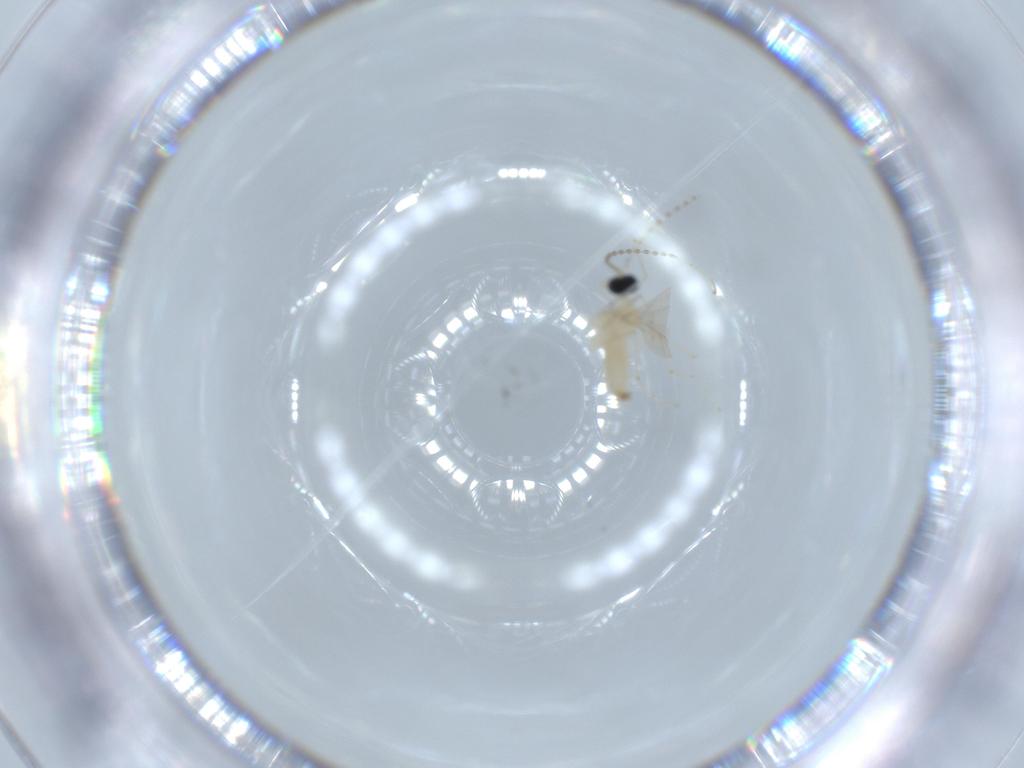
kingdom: Animalia
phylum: Arthropoda
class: Insecta
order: Diptera
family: Cecidomyiidae
